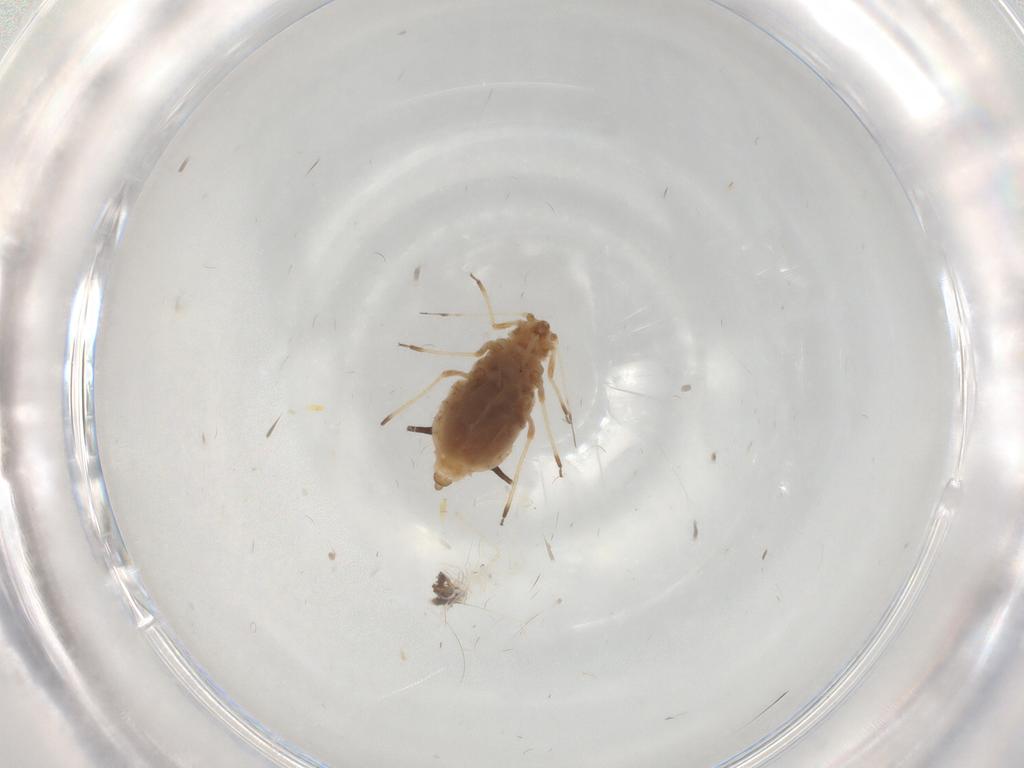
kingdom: Animalia
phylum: Arthropoda
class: Insecta
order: Hemiptera
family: Aphididae
